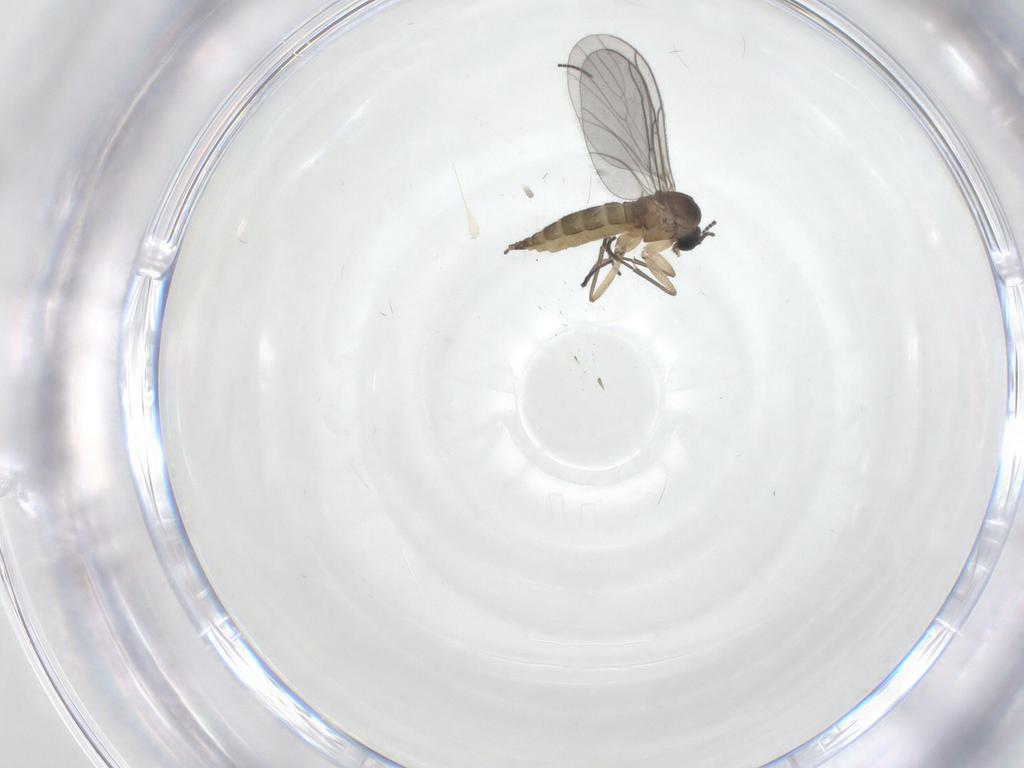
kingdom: Animalia
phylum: Arthropoda
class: Insecta
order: Diptera
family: Sciaridae
